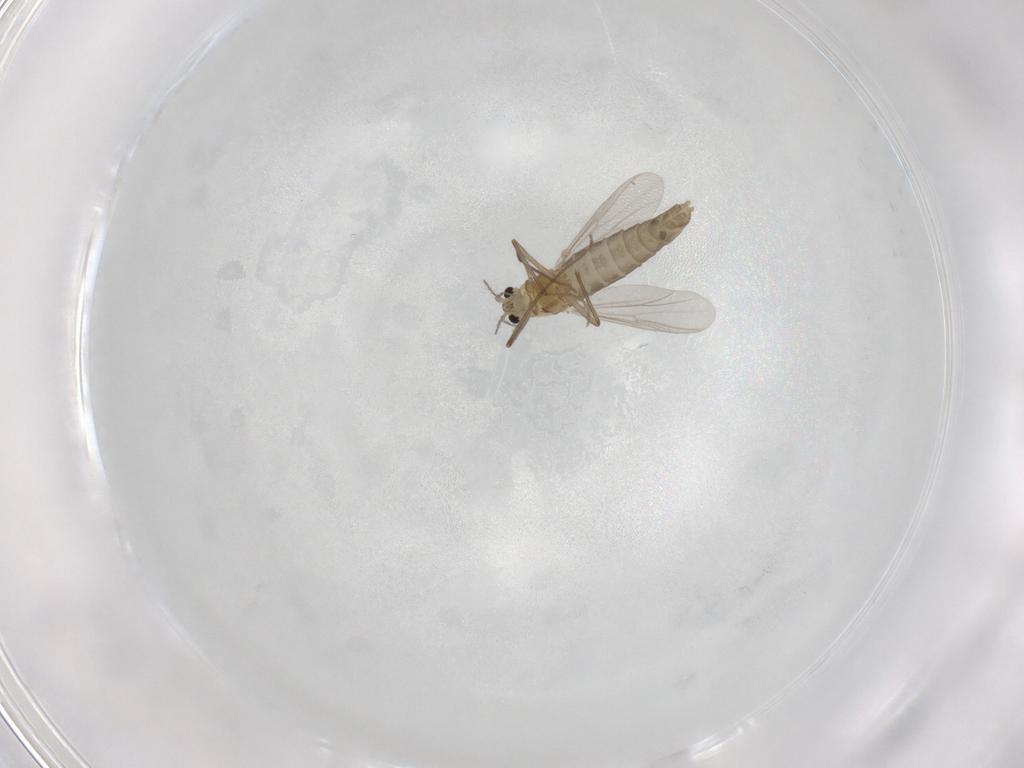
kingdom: Animalia
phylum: Arthropoda
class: Insecta
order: Diptera
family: Chironomidae
